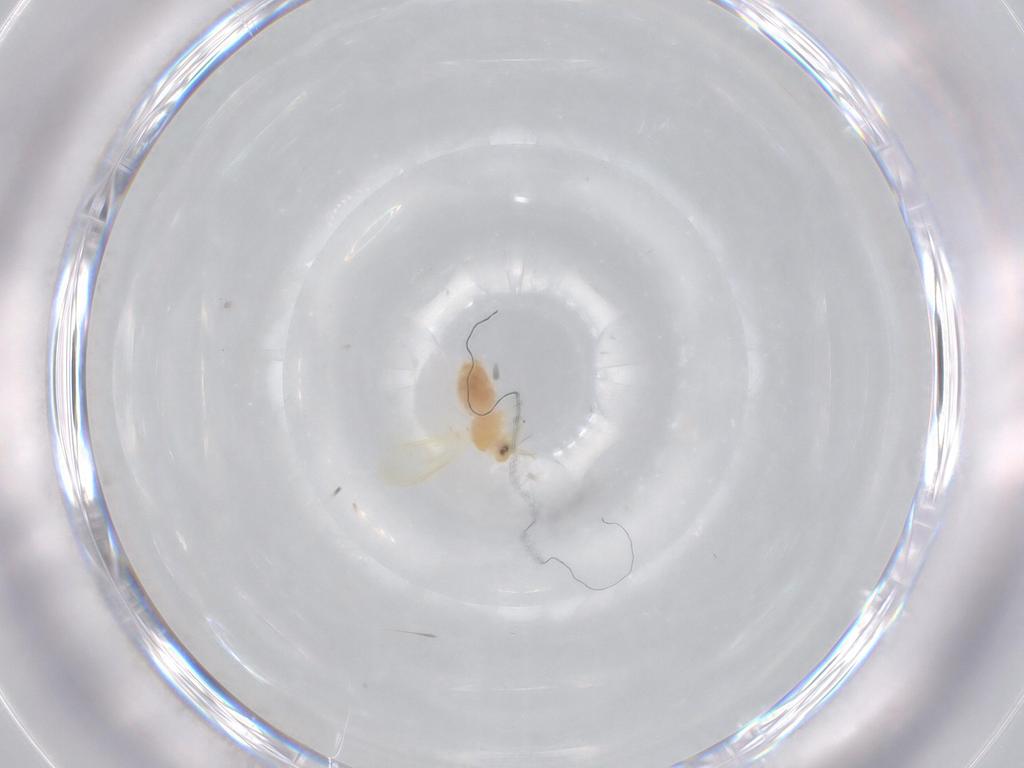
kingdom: Animalia
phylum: Arthropoda
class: Insecta
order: Hemiptera
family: Aleyrodidae
